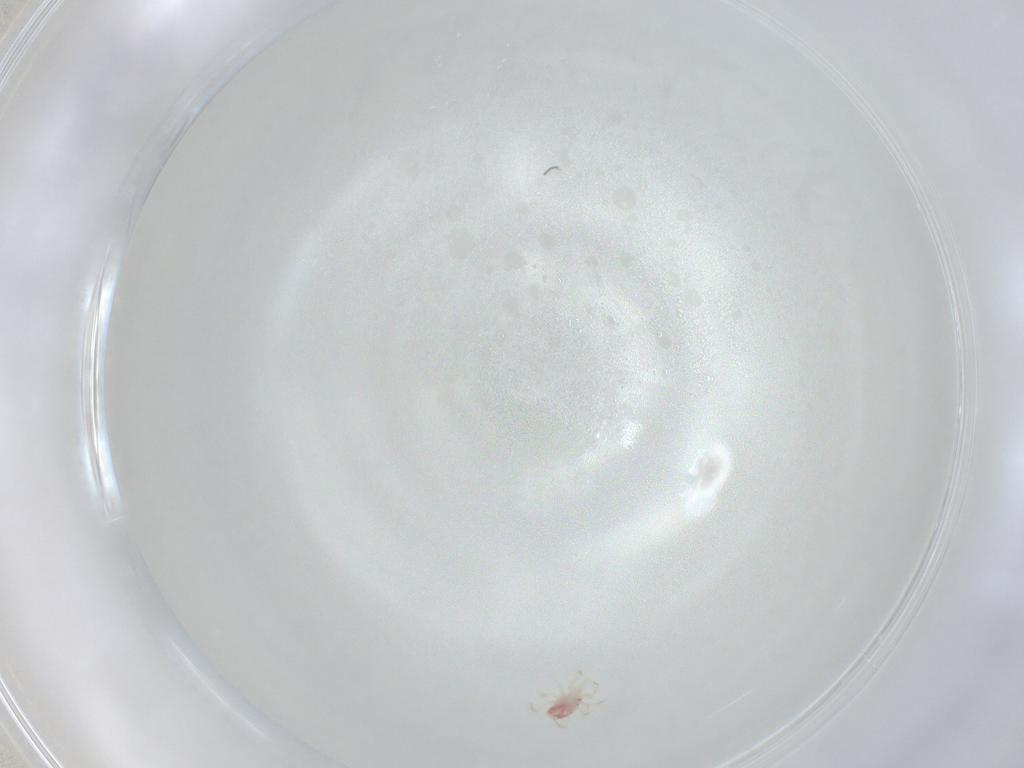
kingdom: Animalia
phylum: Arthropoda
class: Arachnida
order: Mesostigmata
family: Phytoseiidae
